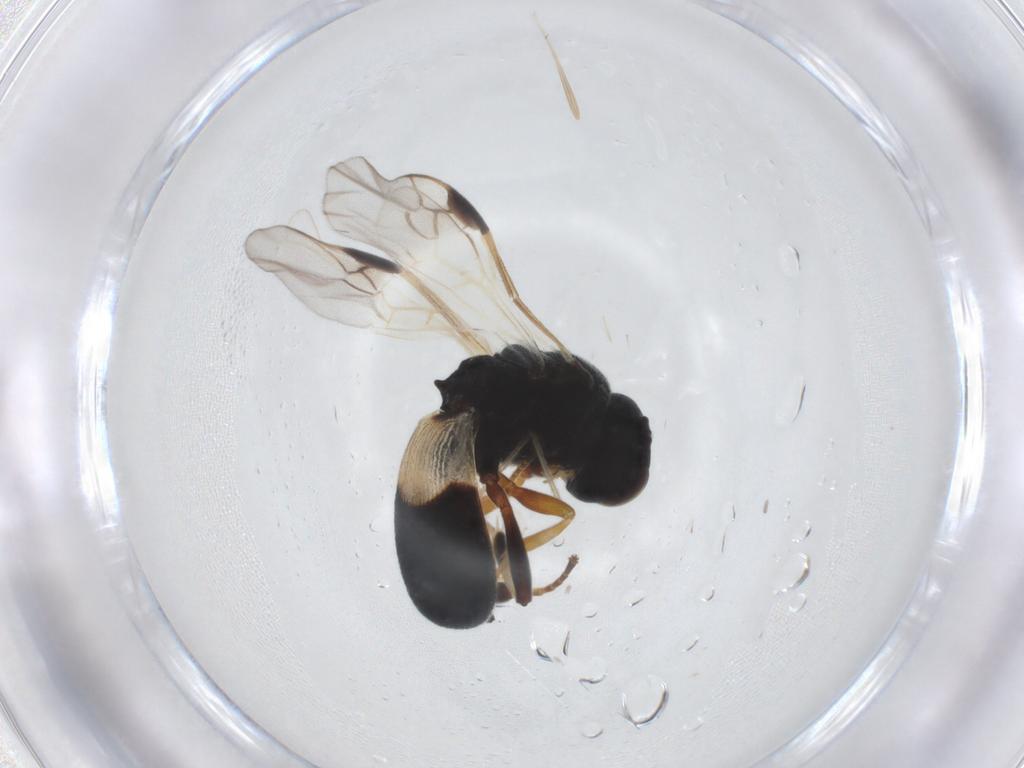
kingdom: Animalia
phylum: Arthropoda
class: Insecta
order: Hymenoptera
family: Braconidae
